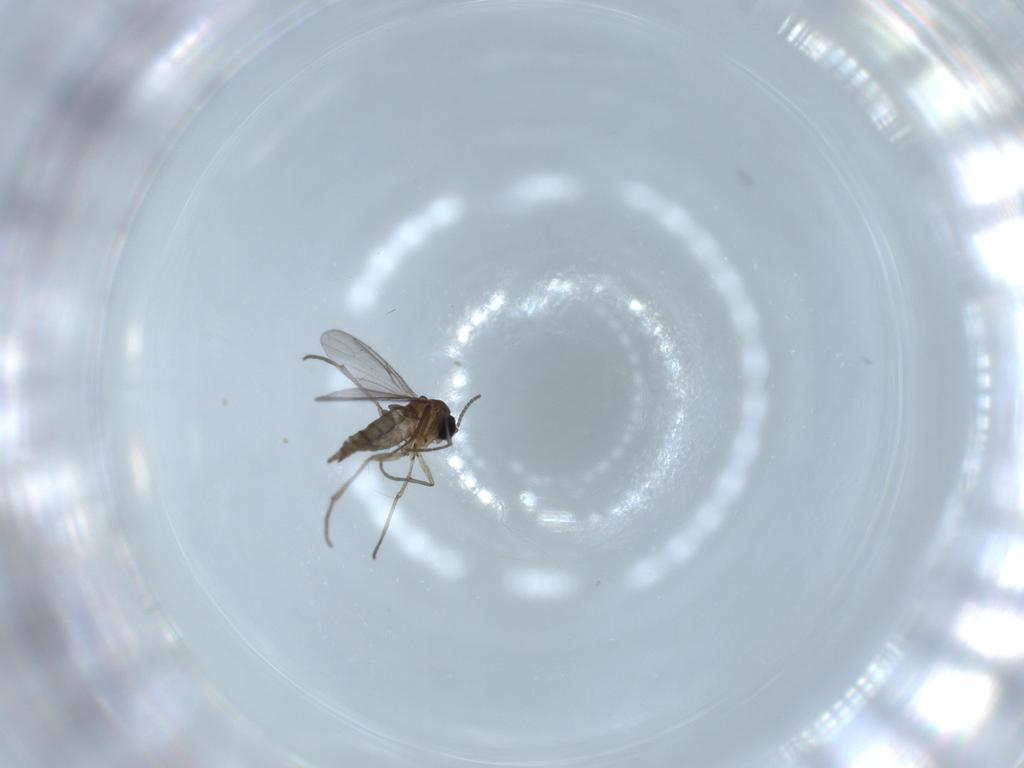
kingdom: Animalia
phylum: Arthropoda
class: Insecta
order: Diptera
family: Sciaridae
